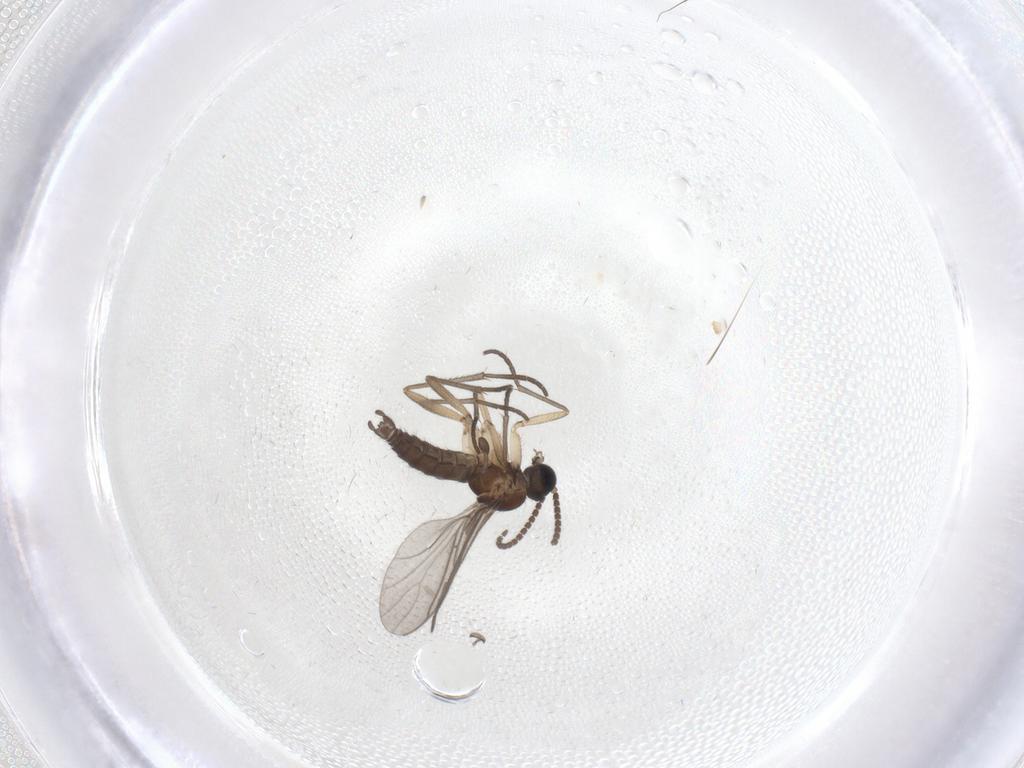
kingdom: Animalia
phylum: Arthropoda
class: Insecta
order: Diptera
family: Sciaridae
